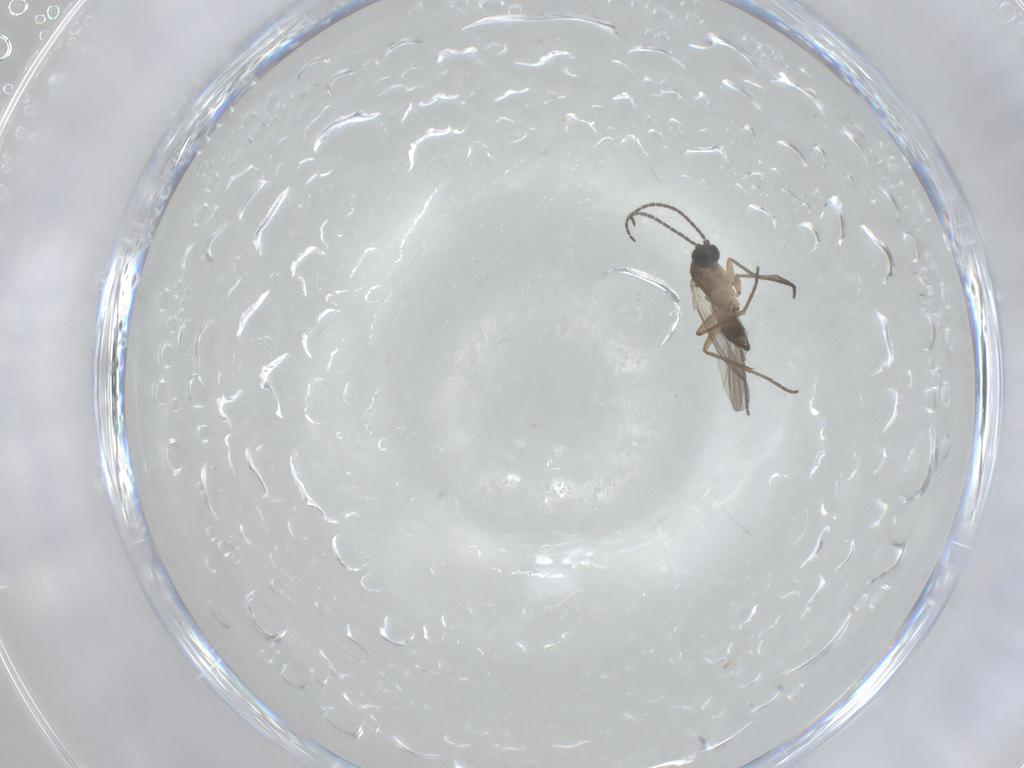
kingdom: Animalia
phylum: Arthropoda
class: Insecta
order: Diptera
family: Sciaridae
